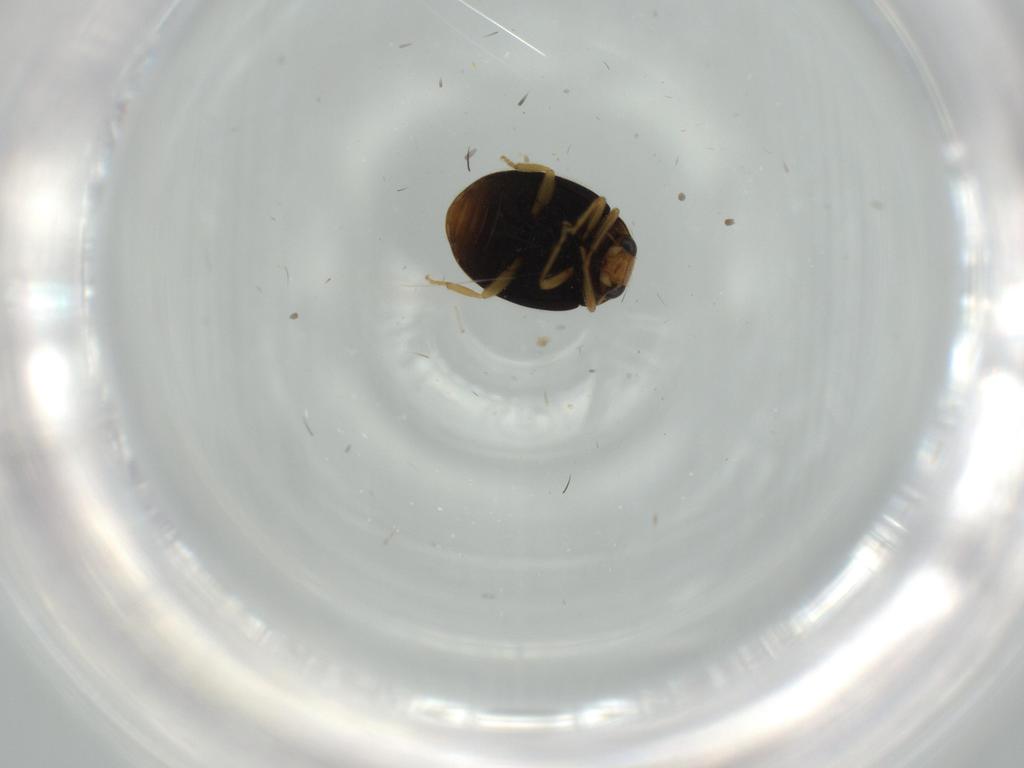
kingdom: Animalia
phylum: Arthropoda
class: Insecta
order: Coleoptera
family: Coccinellidae
